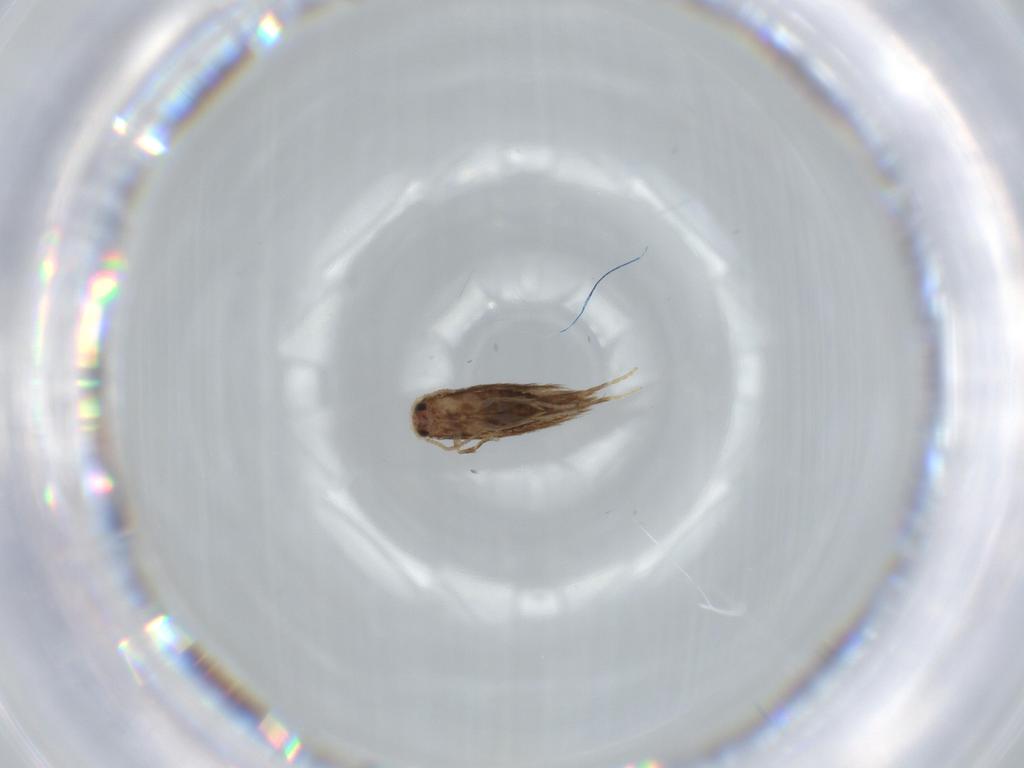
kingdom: Animalia
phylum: Arthropoda
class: Insecta
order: Lepidoptera
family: Nepticulidae
